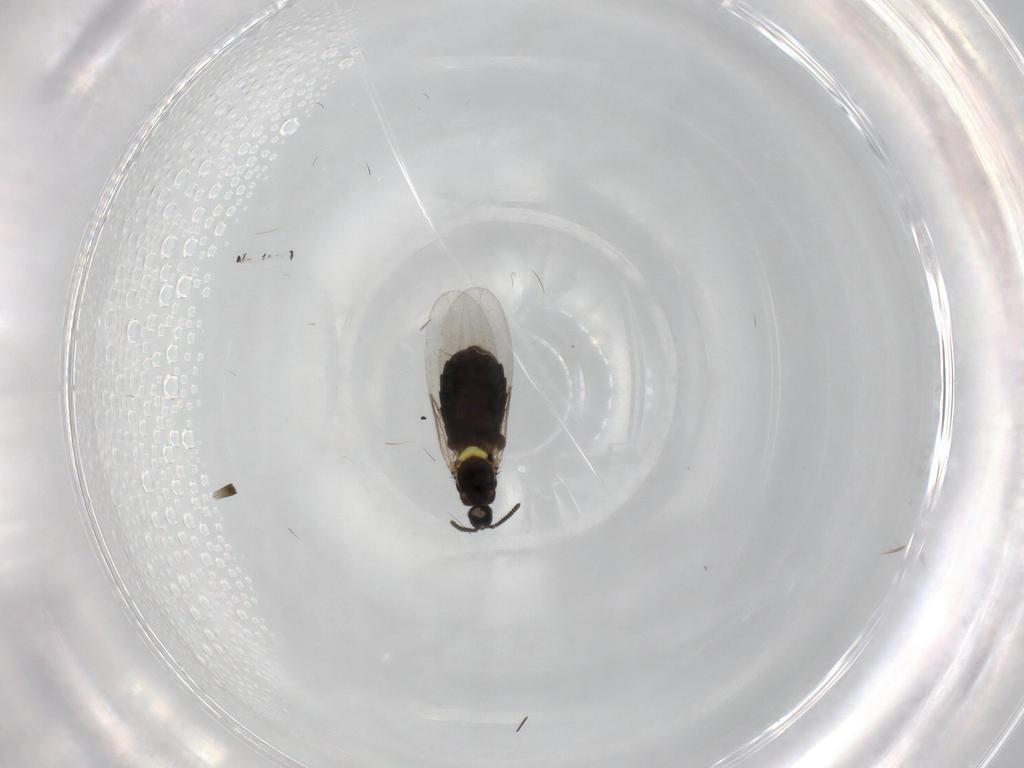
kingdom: Animalia
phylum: Arthropoda
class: Insecta
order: Diptera
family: Scatopsidae
